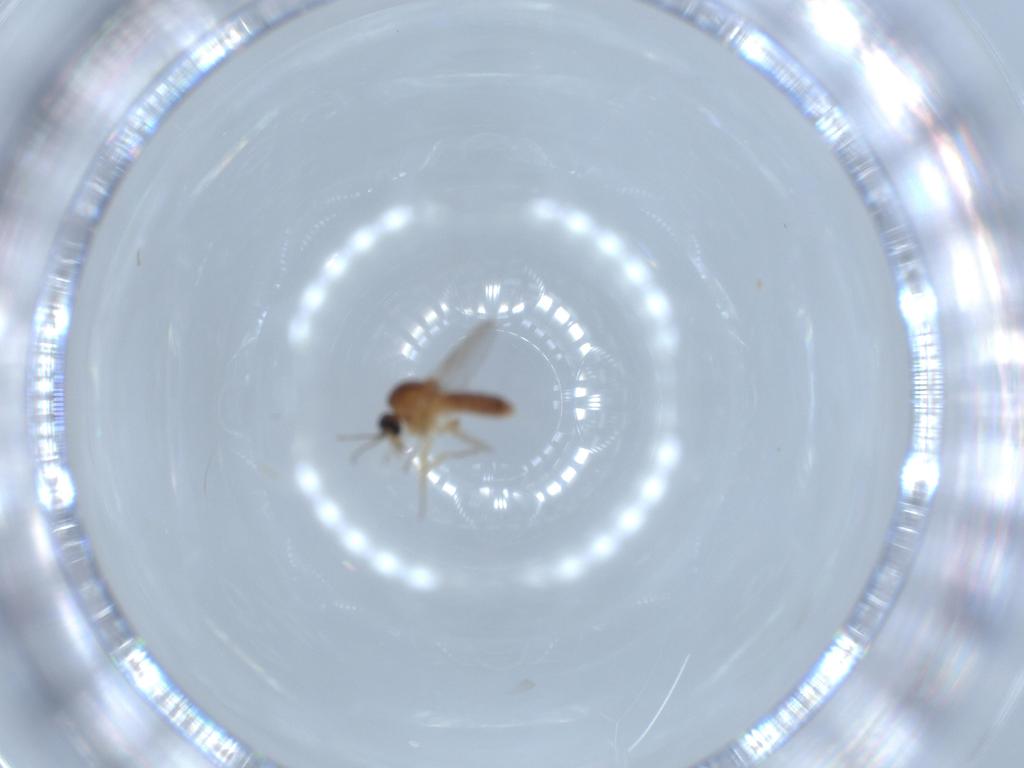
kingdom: Animalia
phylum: Arthropoda
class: Insecta
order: Diptera
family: Ceratopogonidae
